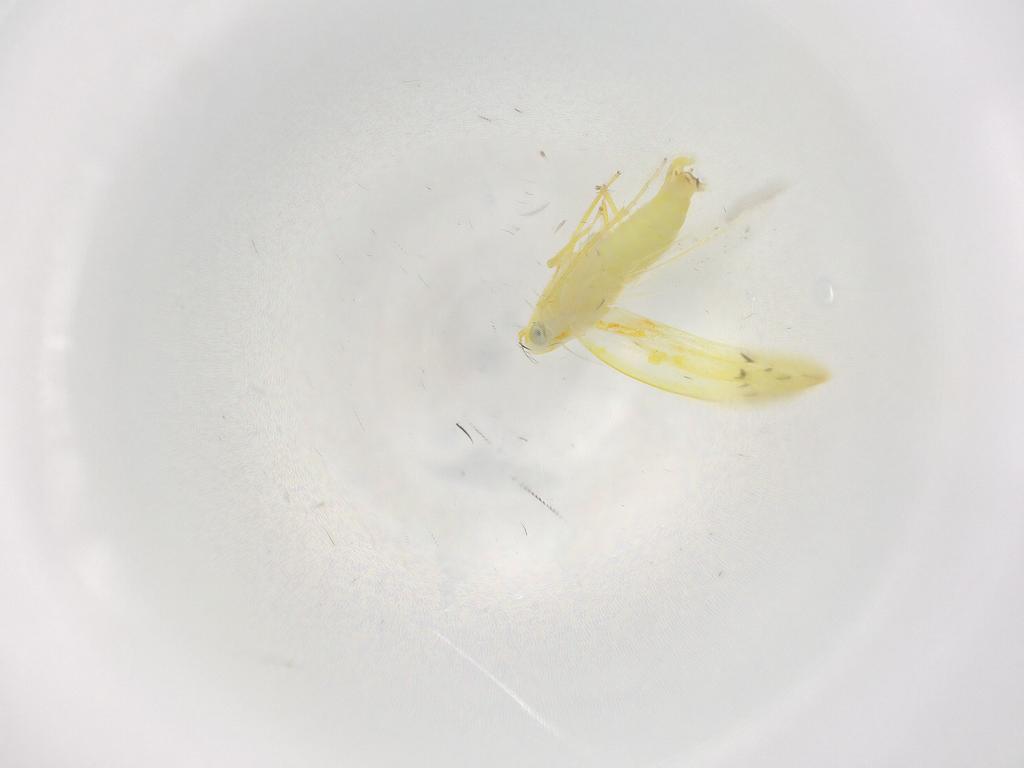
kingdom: Animalia
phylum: Arthropoda
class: Insecta
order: Hemiptera
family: Cicadellidae
